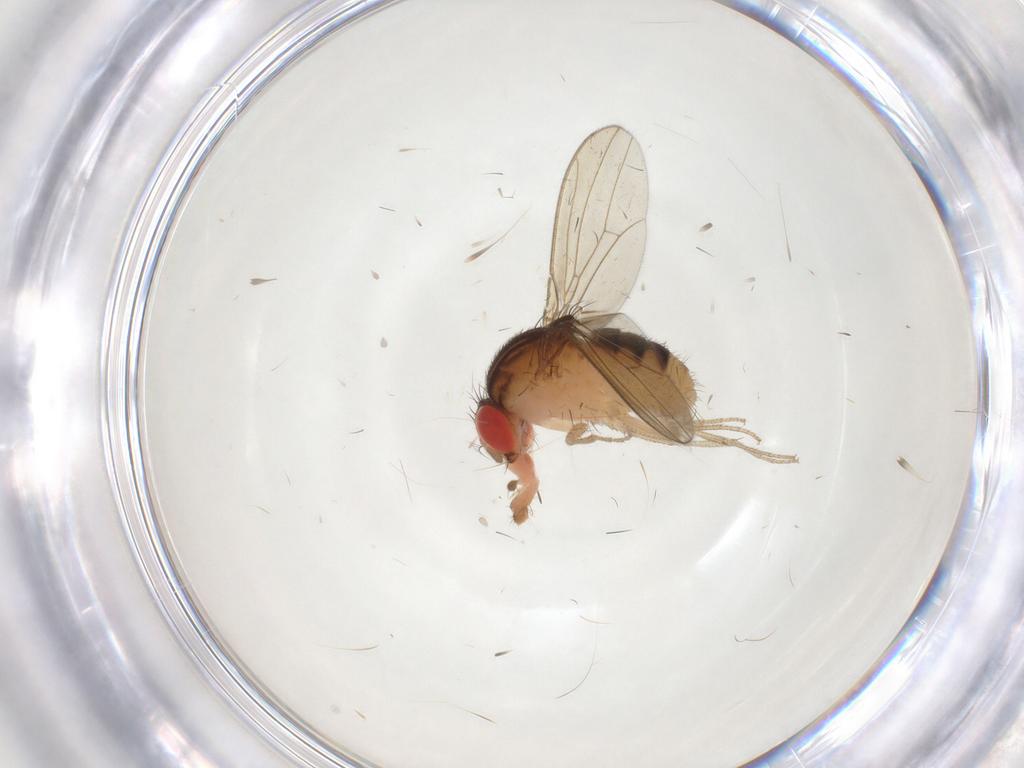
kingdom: Animalia
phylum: Arthropoda
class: Insecta
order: Diptera
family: Drosophilidae
